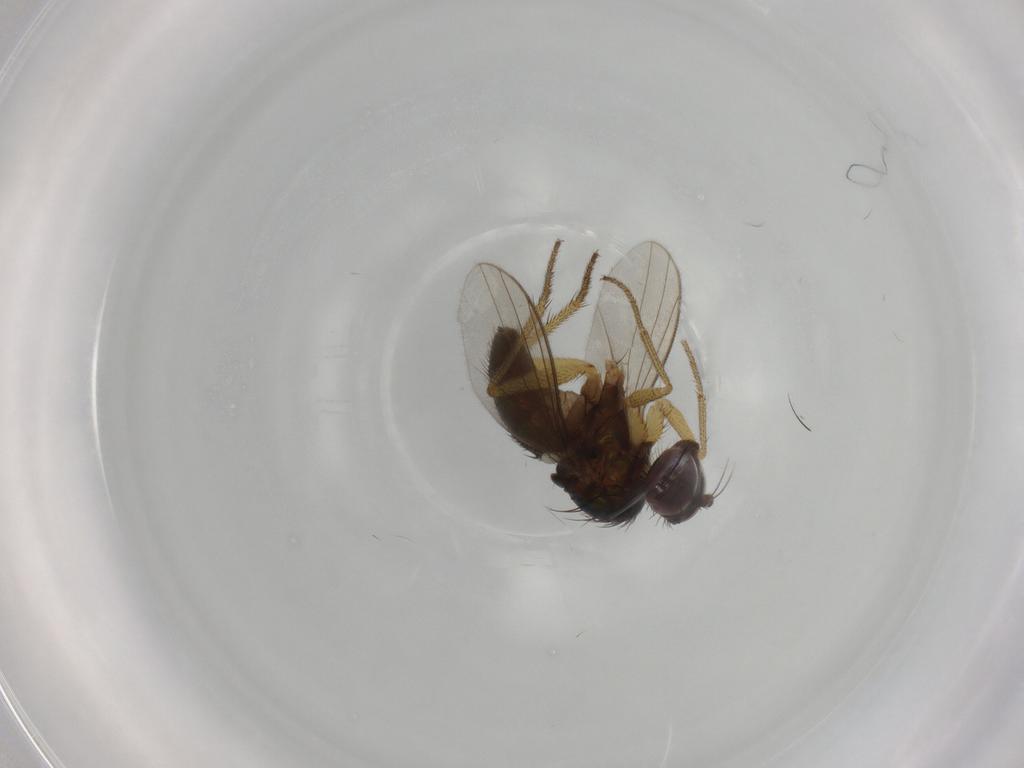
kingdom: Animalia
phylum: Arthropoda
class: Insecta
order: Diptera
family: Dolichopodidae
